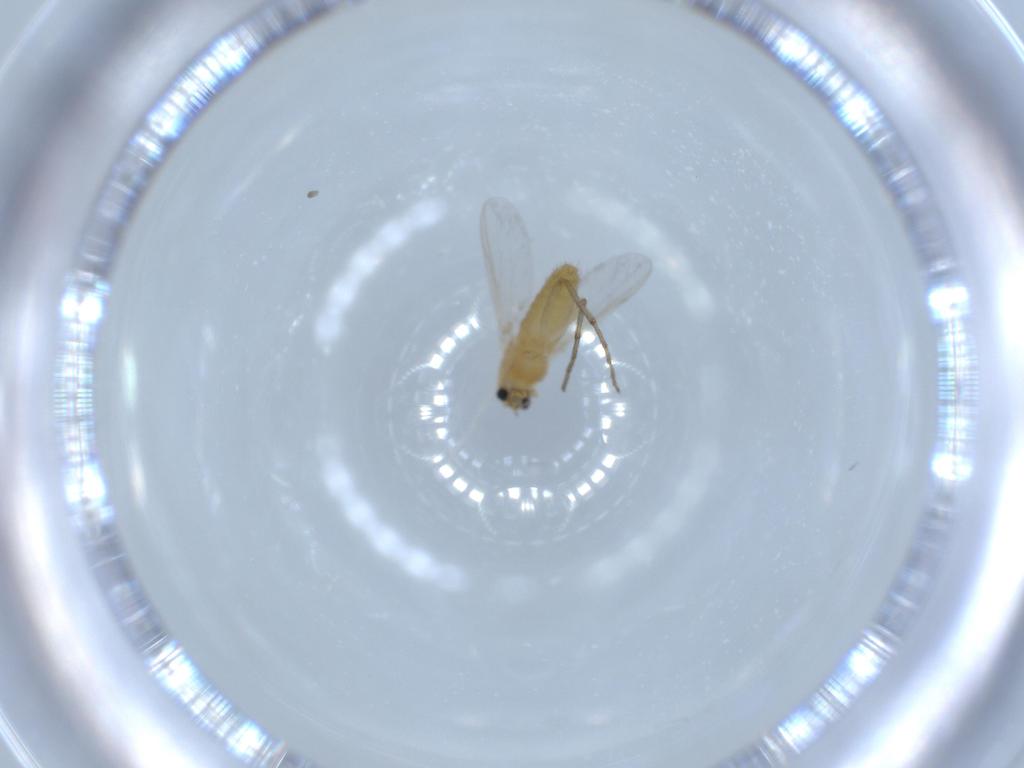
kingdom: Animalia
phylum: Arthropoda
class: Insecta
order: Diptera
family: Chironomidae
